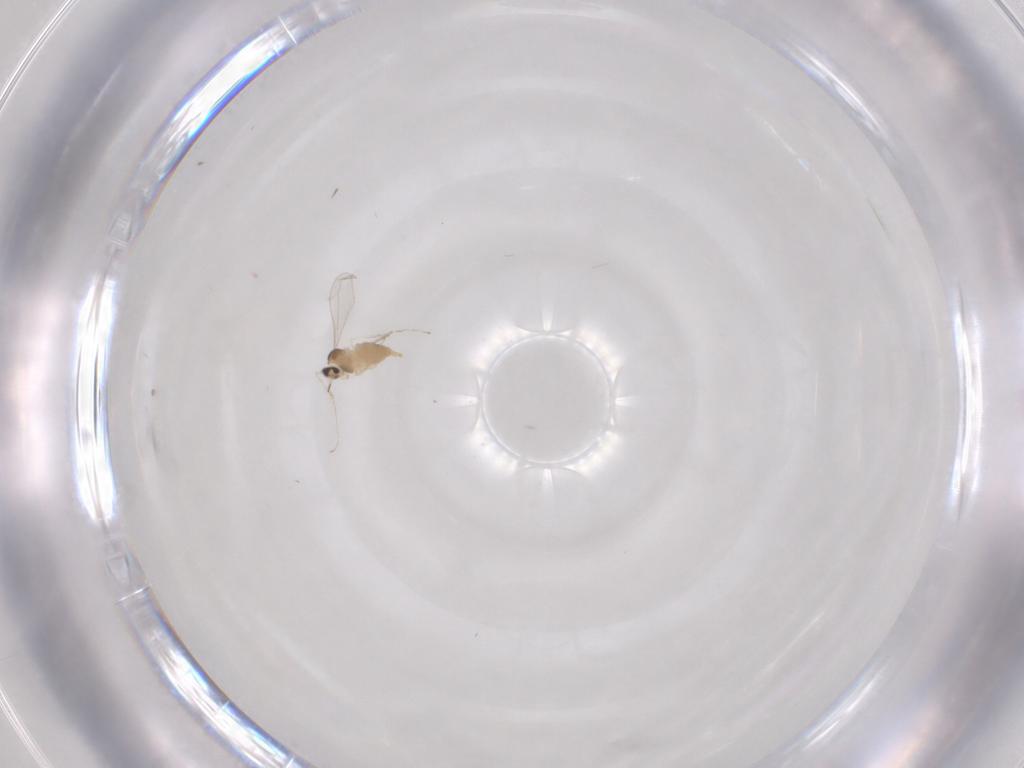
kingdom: Animalia
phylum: Arthropoda
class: Insecta
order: Diptera
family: Cecidomyiidae
